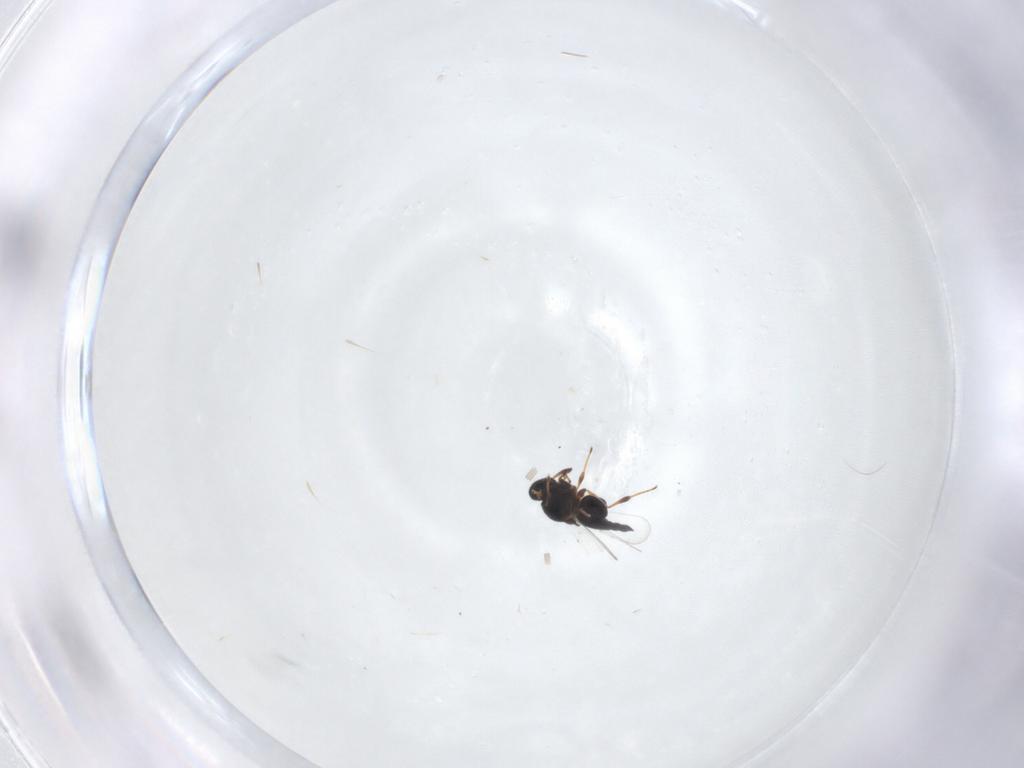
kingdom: Animalia
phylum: Arthropoda
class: Insecta
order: Hymenoptera
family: Platygastridae
